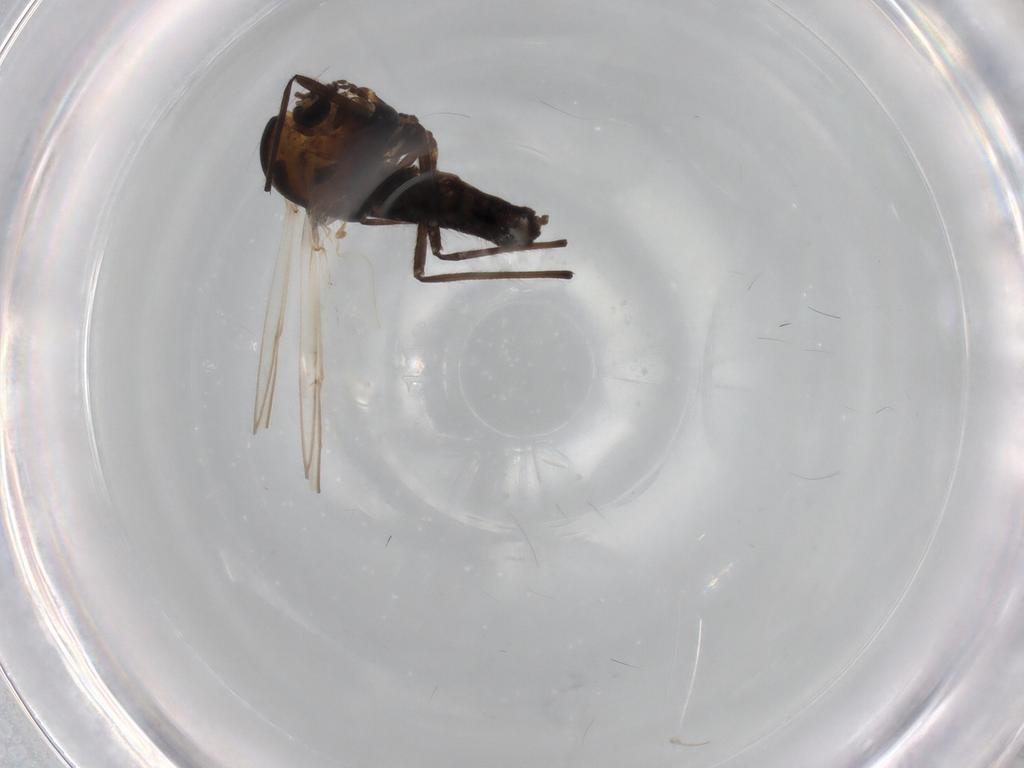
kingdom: Animalia
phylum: Arthropoda
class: Insecta
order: Diptera
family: Chironomidae
